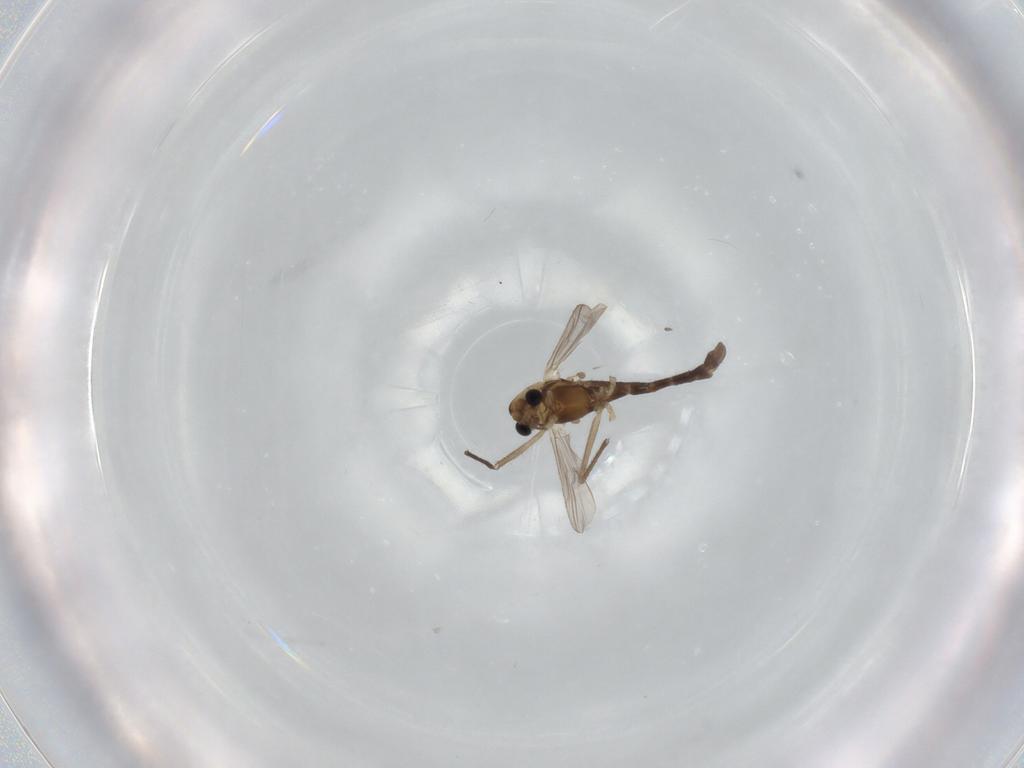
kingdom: Animalia
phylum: Arthropoda
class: Insecta
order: Diptera
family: Chironomidae
